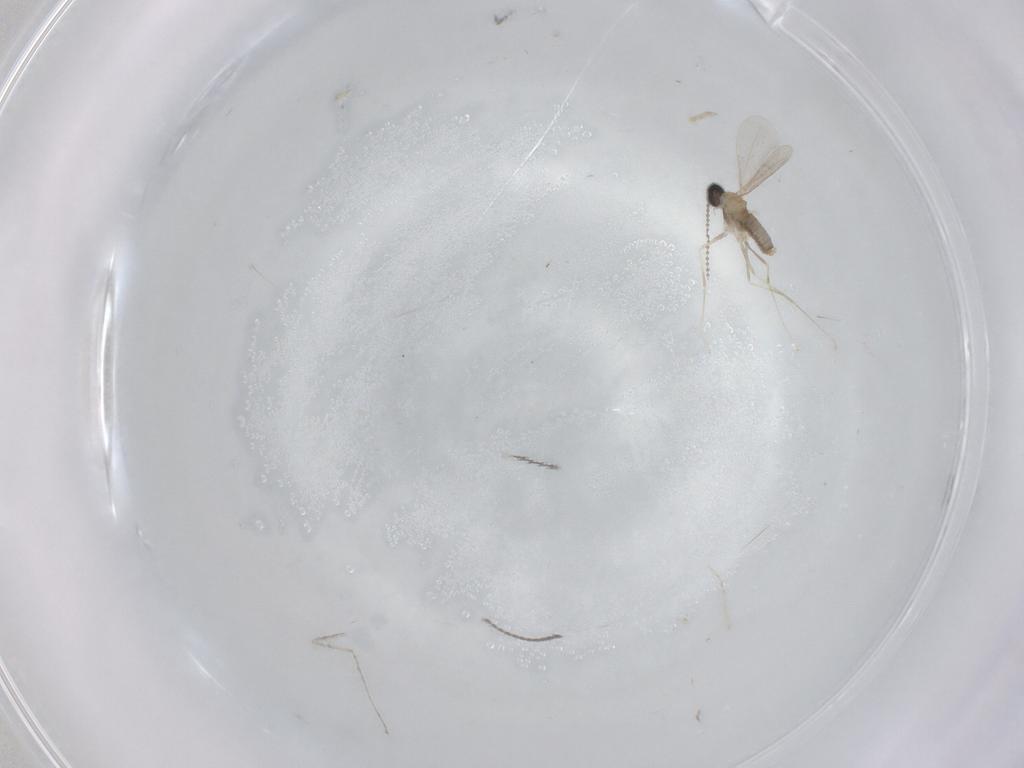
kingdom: Animalia
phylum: Arthropoda
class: Insecta
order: Diptera
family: Cecidomyiidae
